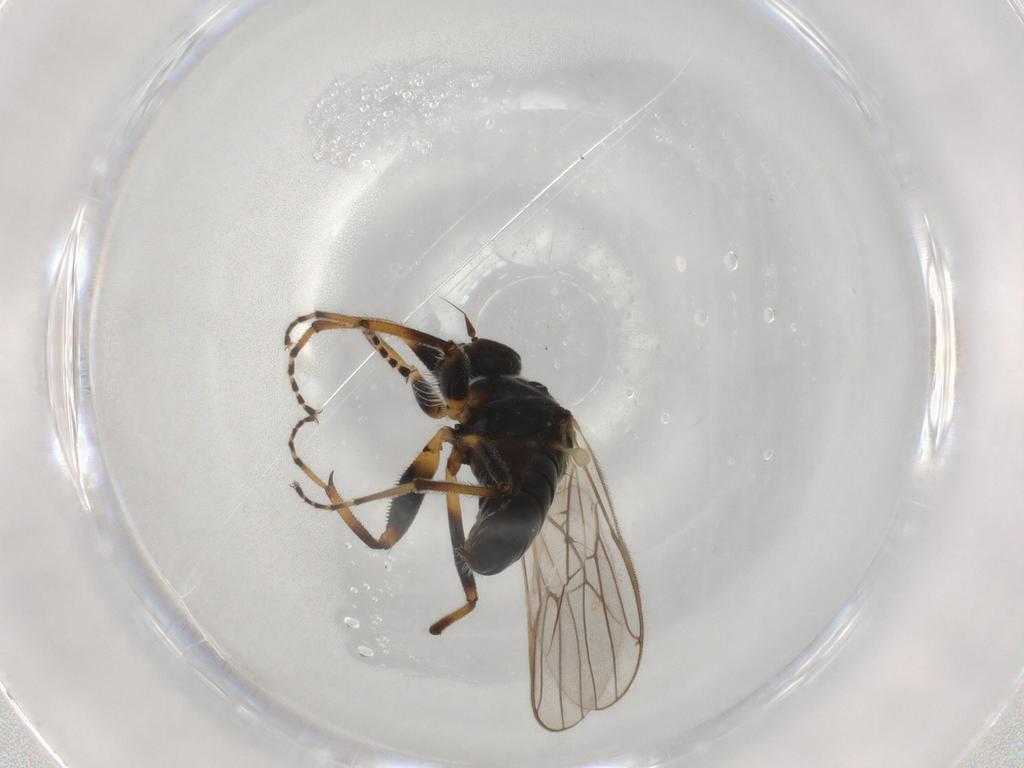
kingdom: Animalia
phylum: Arthropoda
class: Insecta
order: Diptera
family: Hybotidae
